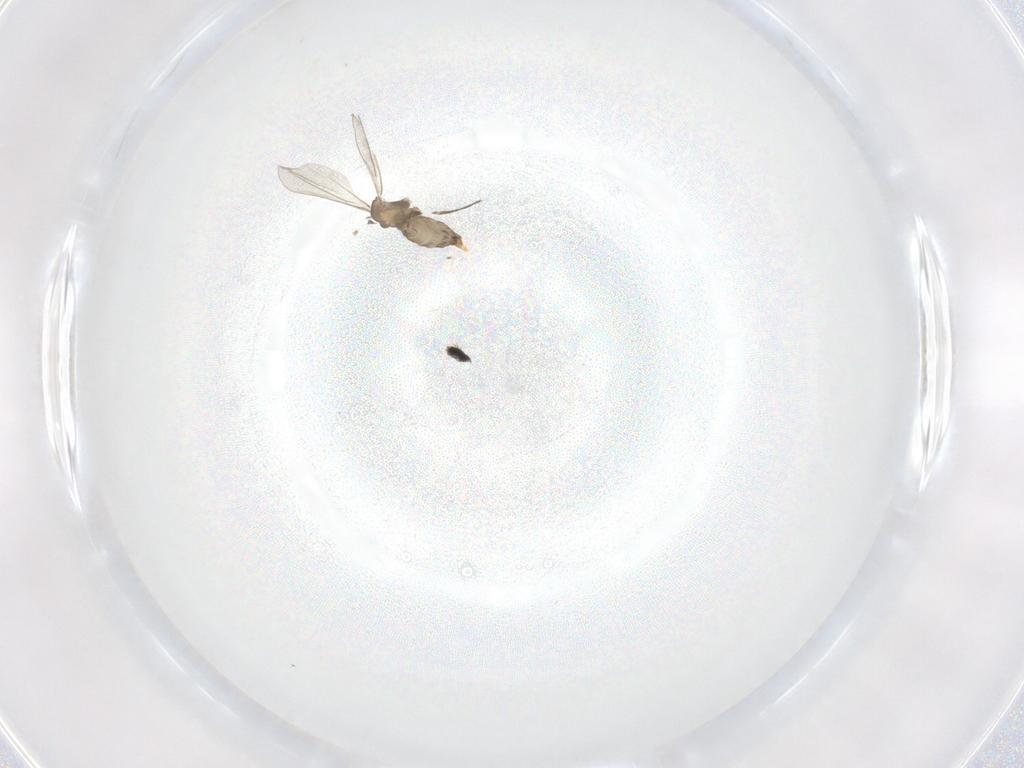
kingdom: Animalia
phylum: Arthropoda
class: Insecta
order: Diptera
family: Cecidomyiidae
